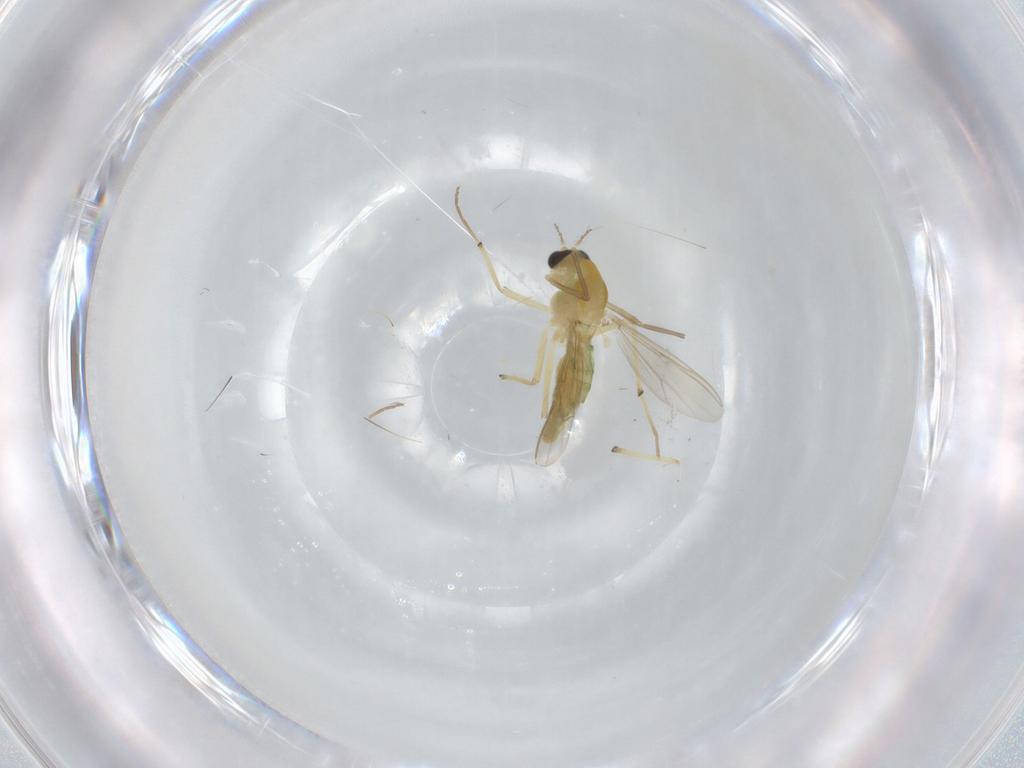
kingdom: Animalia
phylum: Arthropoda
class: Insecta
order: Diptera
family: Chironomidae
